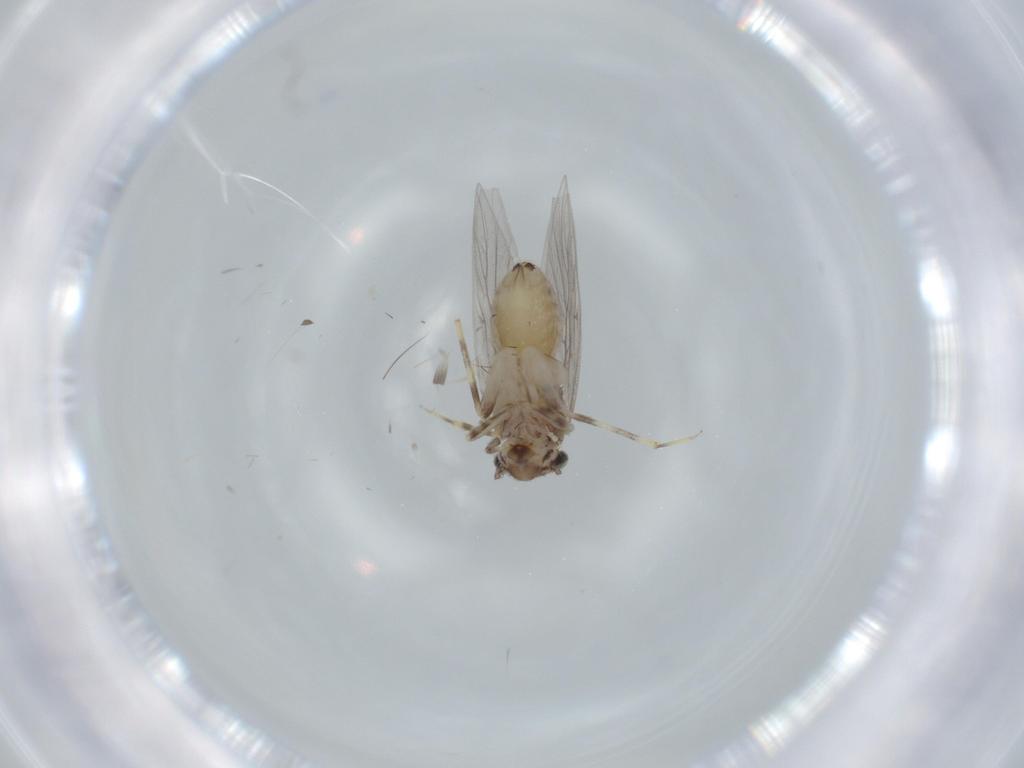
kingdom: Animalia
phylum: Arthropoda
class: Insecta
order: Psocodea
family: Lepidopsocidae
